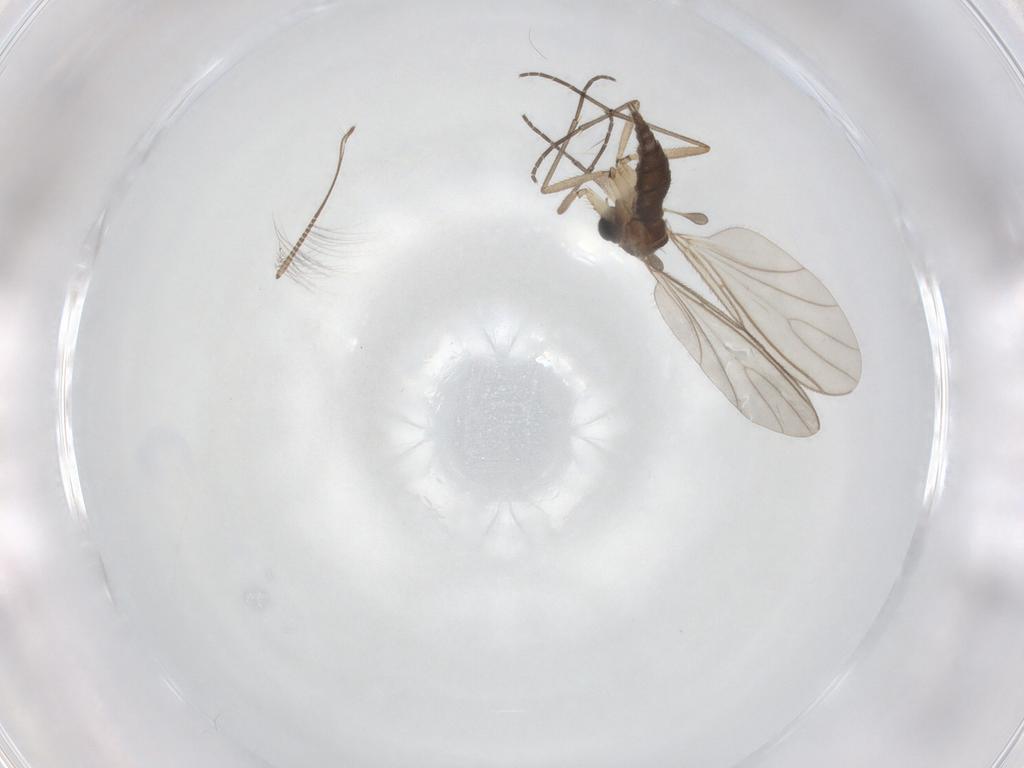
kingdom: Animalia
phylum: Arthropoda
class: Insecta
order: Diptera
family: Sciaridae
